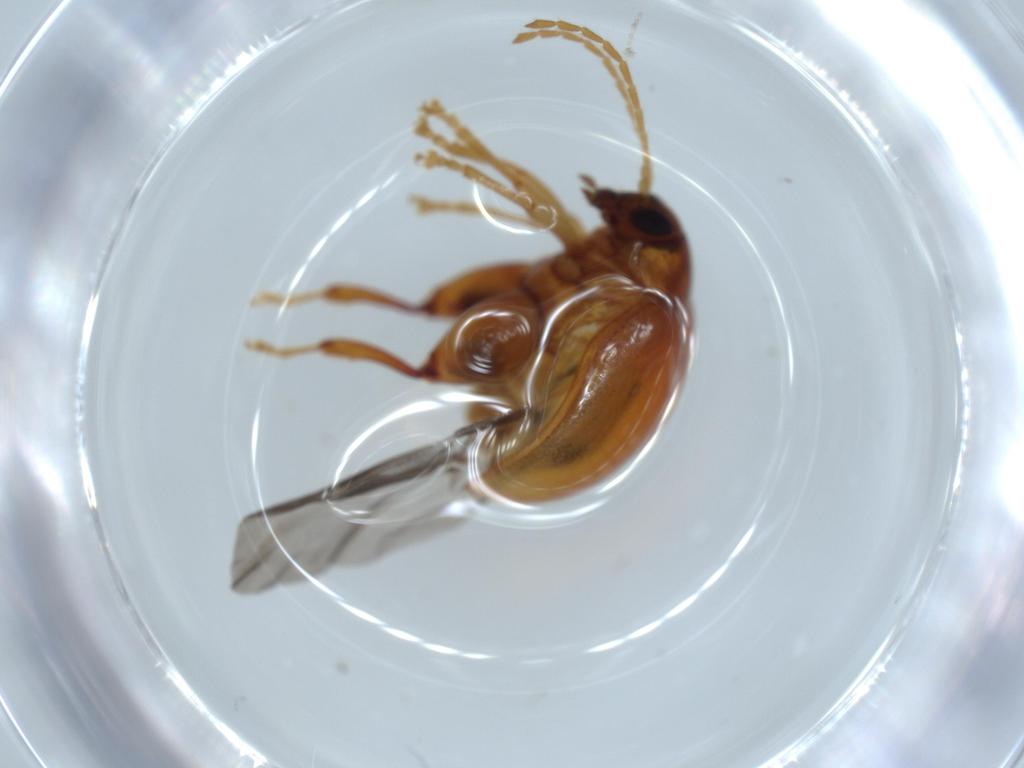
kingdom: Animalia
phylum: Arthropoda
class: Insecta
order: Coleoptera
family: Chrysomelidae
